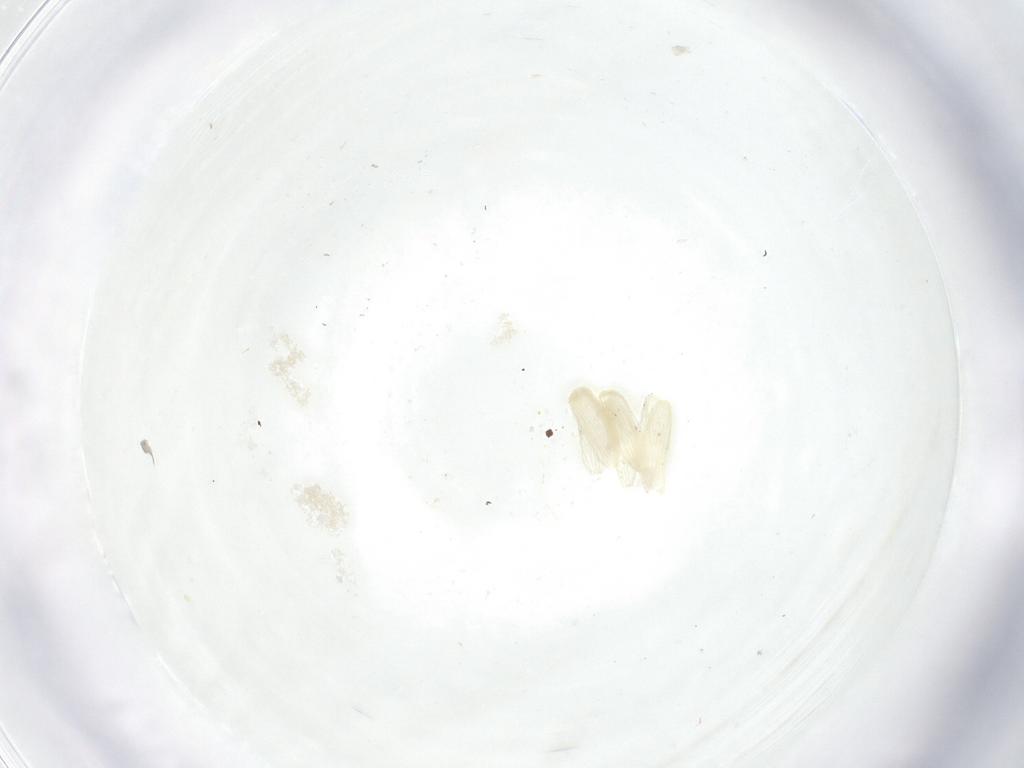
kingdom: Animalia
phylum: Arthropoda
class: Insecta
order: Diptera
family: Fergusoninidae
